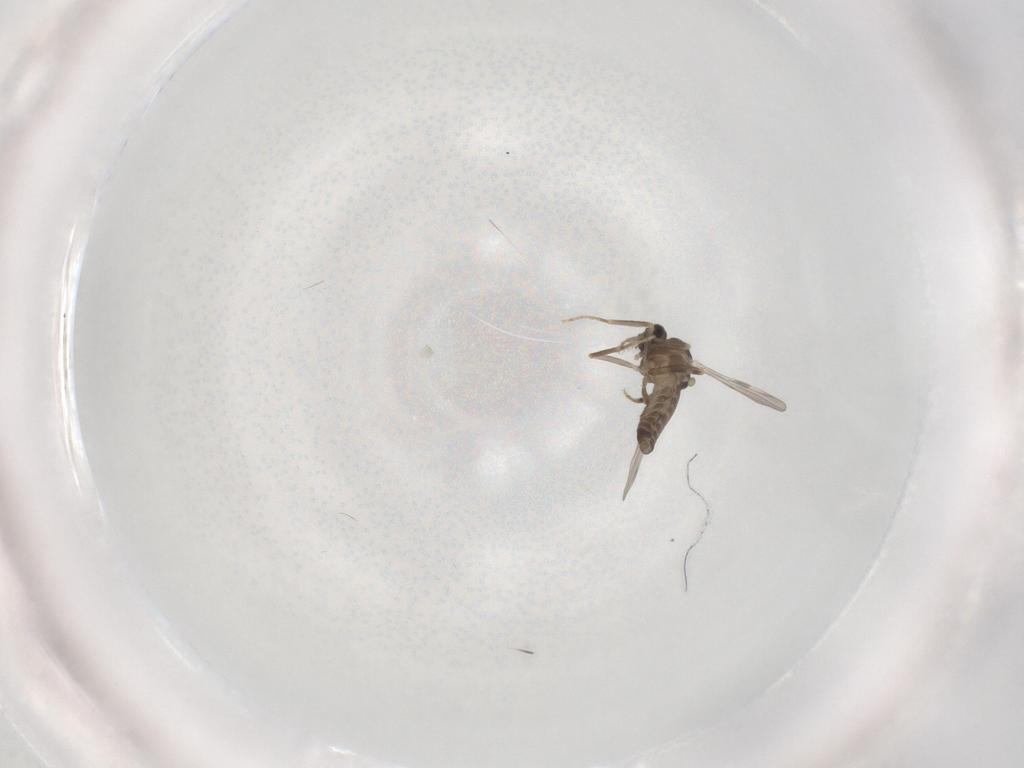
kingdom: Animalia
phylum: Arthropoda
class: Insecta
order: Diptera
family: Ceratopogonidae
